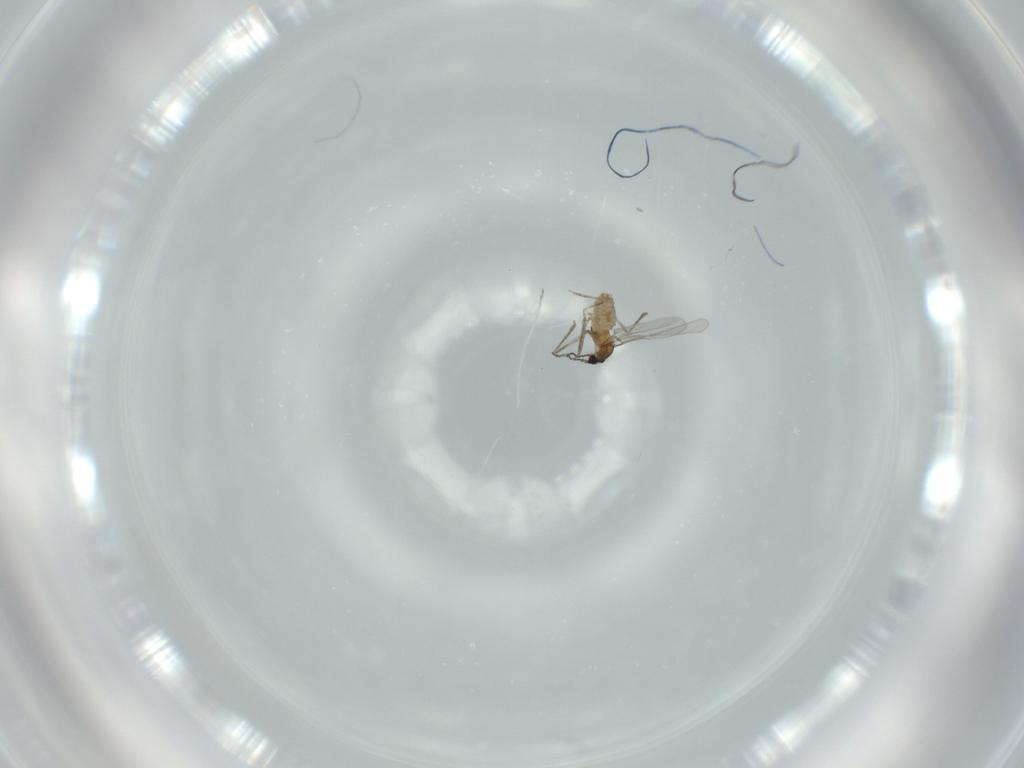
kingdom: Animalia
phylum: Arthropoda
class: Insecta
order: Diptera
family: Cecidomyiidae
